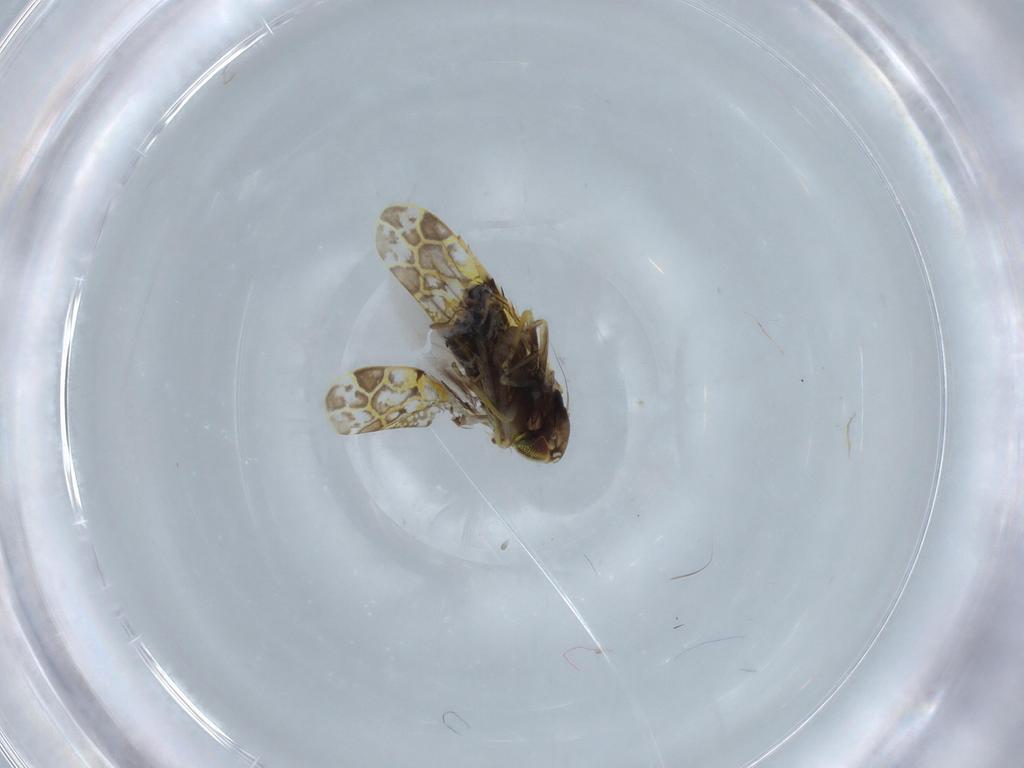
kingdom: Animalia
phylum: Arthropoda
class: Insecta
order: Hemiptera
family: Cicadellidae
